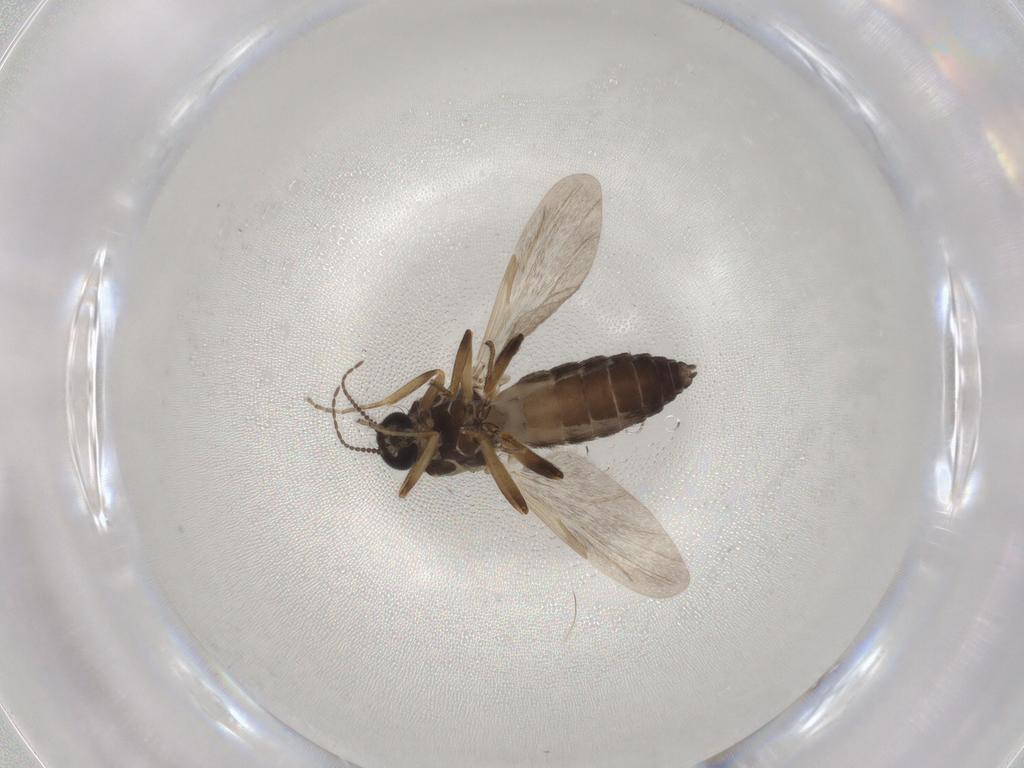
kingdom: Animalia
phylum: Arthropoda
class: Insecta
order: Diptera
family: Ceratopogonidae
